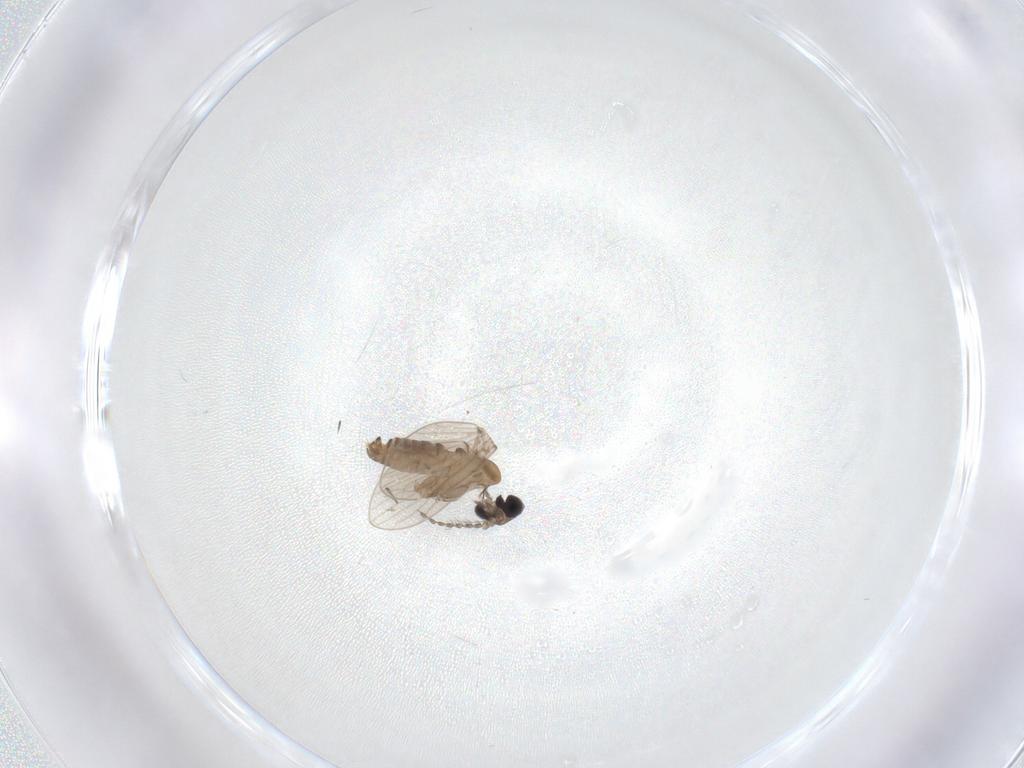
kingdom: Animalia
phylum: Arthropoda
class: Insecta
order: Diptera
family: Psychodidae
